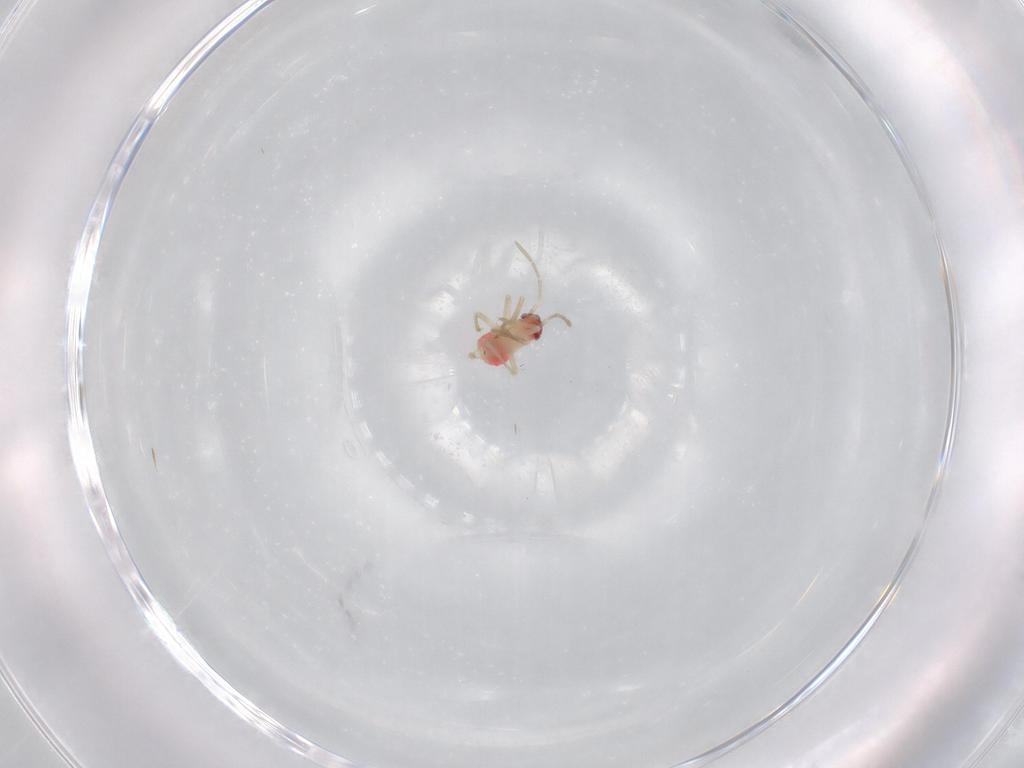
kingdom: Animalia
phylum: Arthropoda
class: Insecta
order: Hemiptera
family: Miridae
